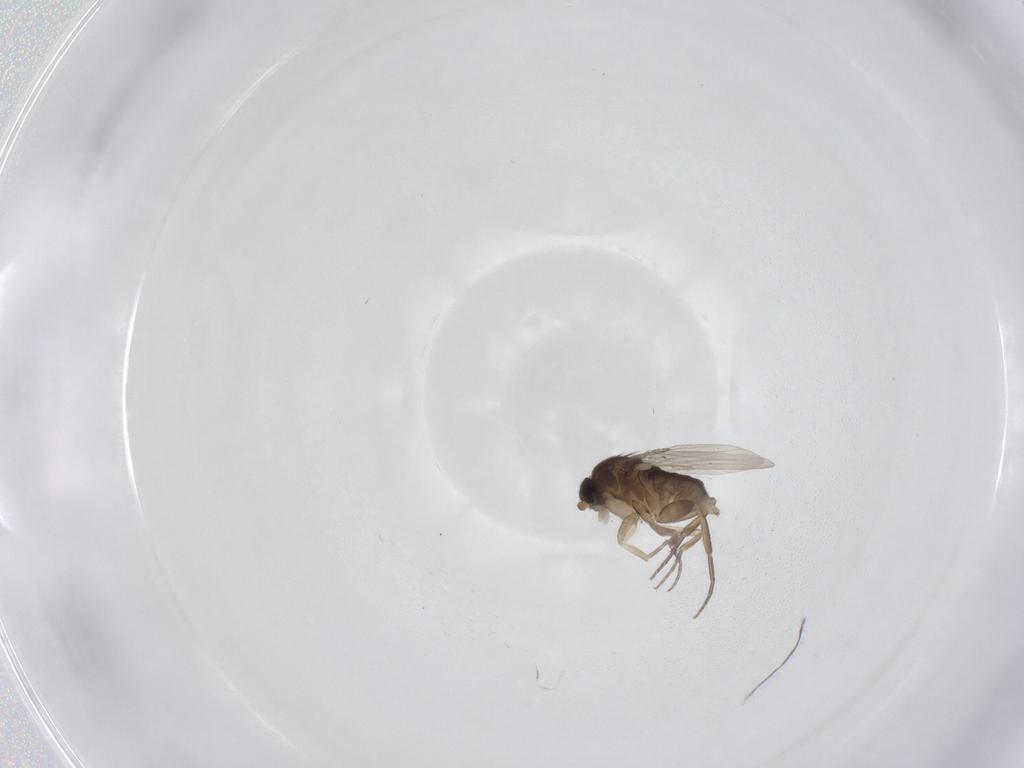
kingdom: Animalia
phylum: Arthropoda
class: Insecta
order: Diptera
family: Phoridae
